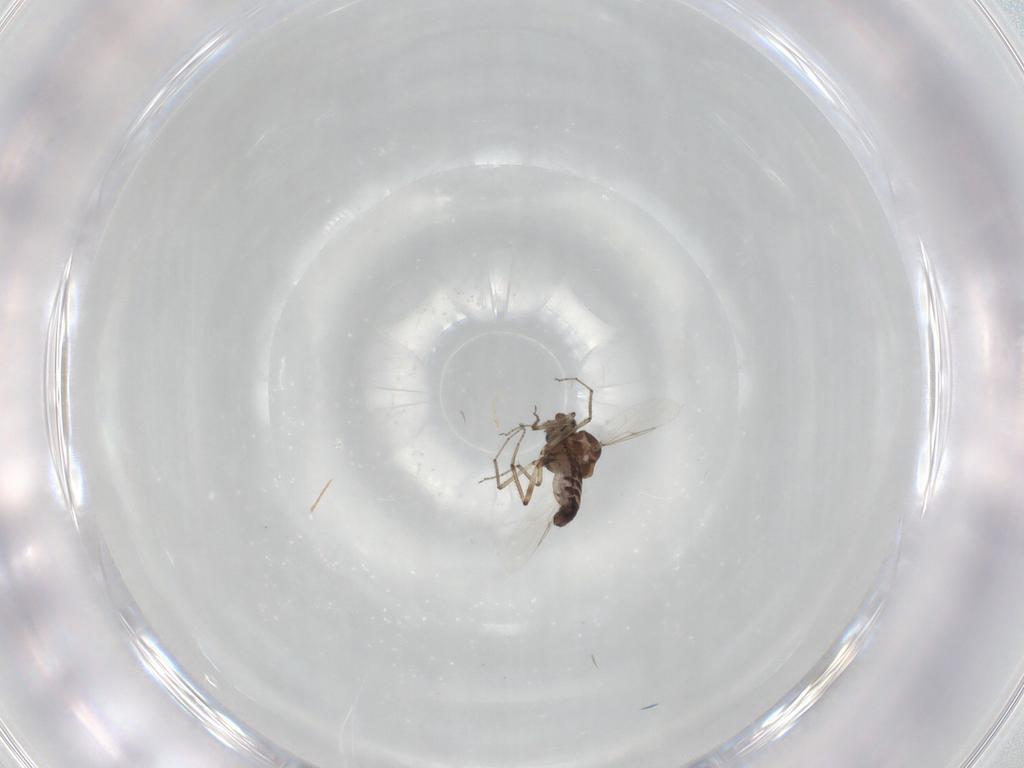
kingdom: Animalia
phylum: Arthropoda
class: Insecta
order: Diptera
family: Ceratopogonidae
